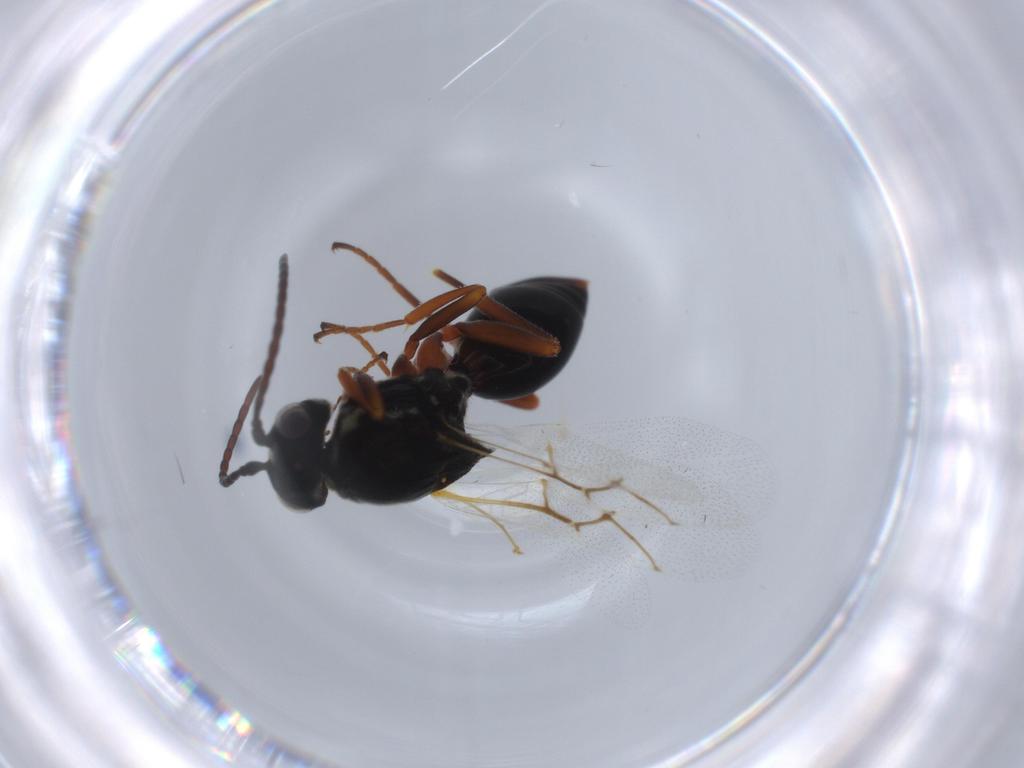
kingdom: Animalia
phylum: Arthropoda
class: Insecta
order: Hymenoptera
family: Figitidae
